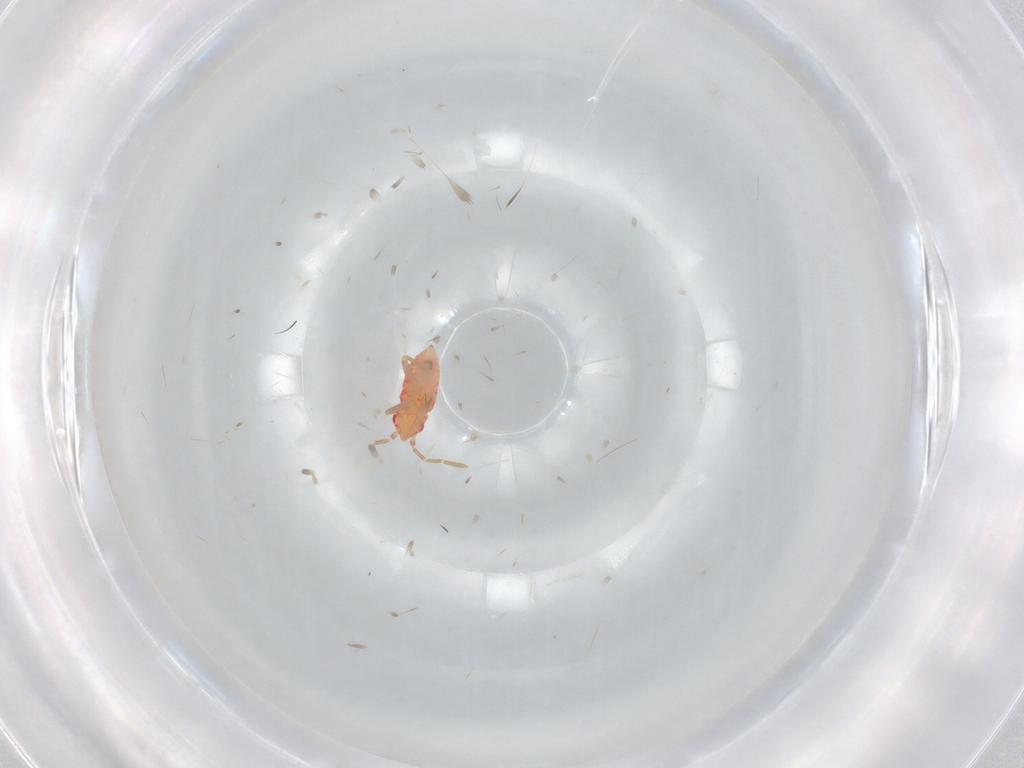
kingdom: Animalia
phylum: Arthropoda
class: Insecta
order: Hemiptera
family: Miridae
